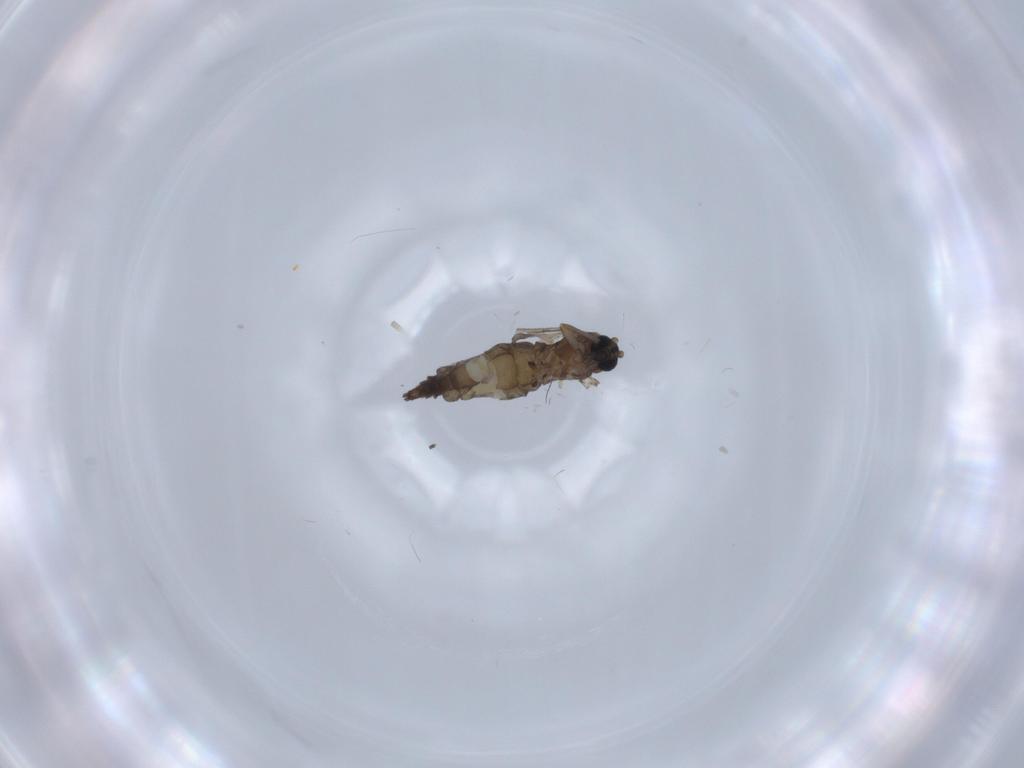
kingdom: Animalia
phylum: Arthropoda
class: Insecta
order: Diptera
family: Sciaridae
